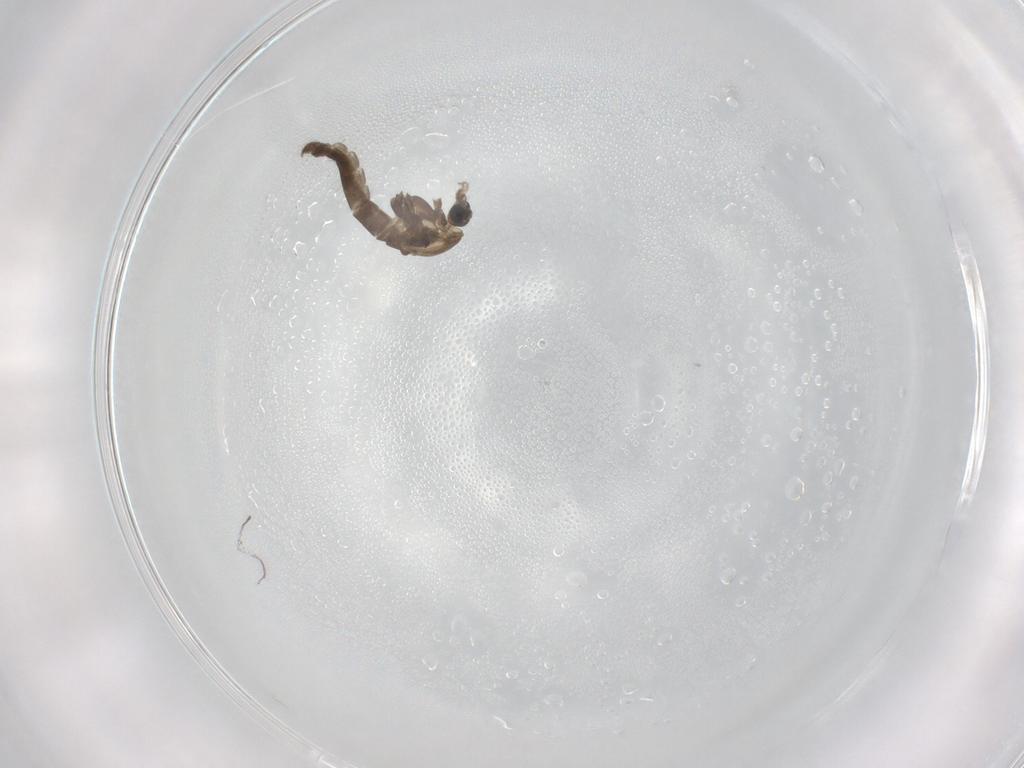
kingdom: Animalia
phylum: Arthropoda
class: Insecta
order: Diptera
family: Chironomidae
